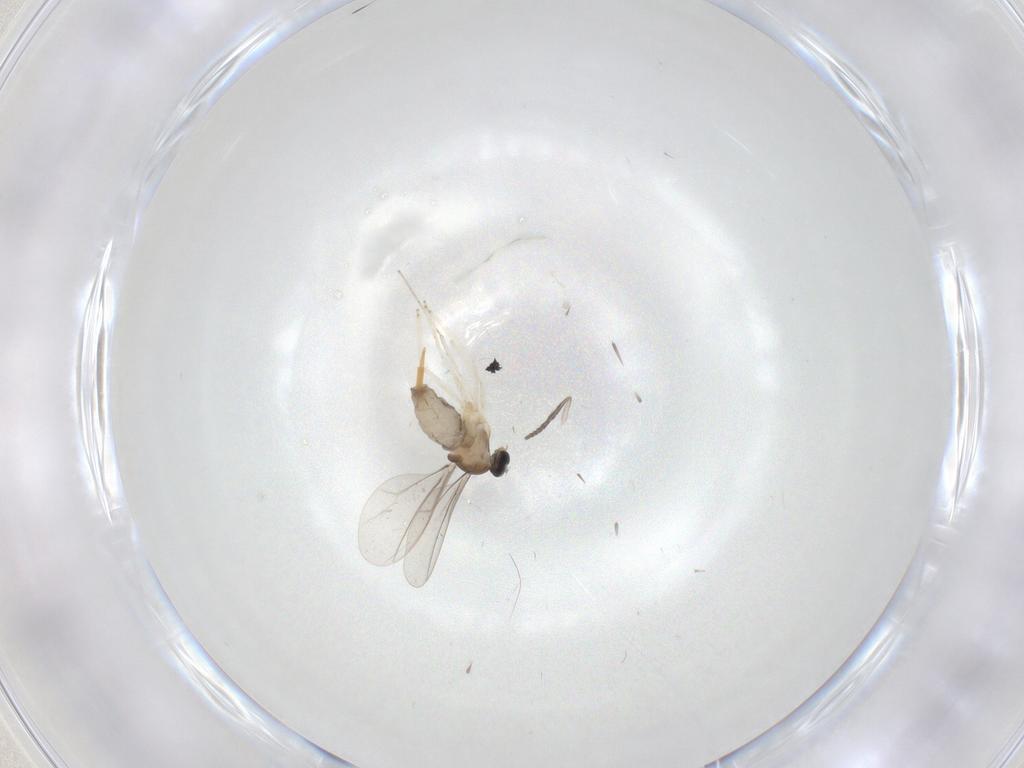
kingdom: Animalia
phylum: Arthropoda
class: Insecta
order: Diptera
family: Psychodidae
